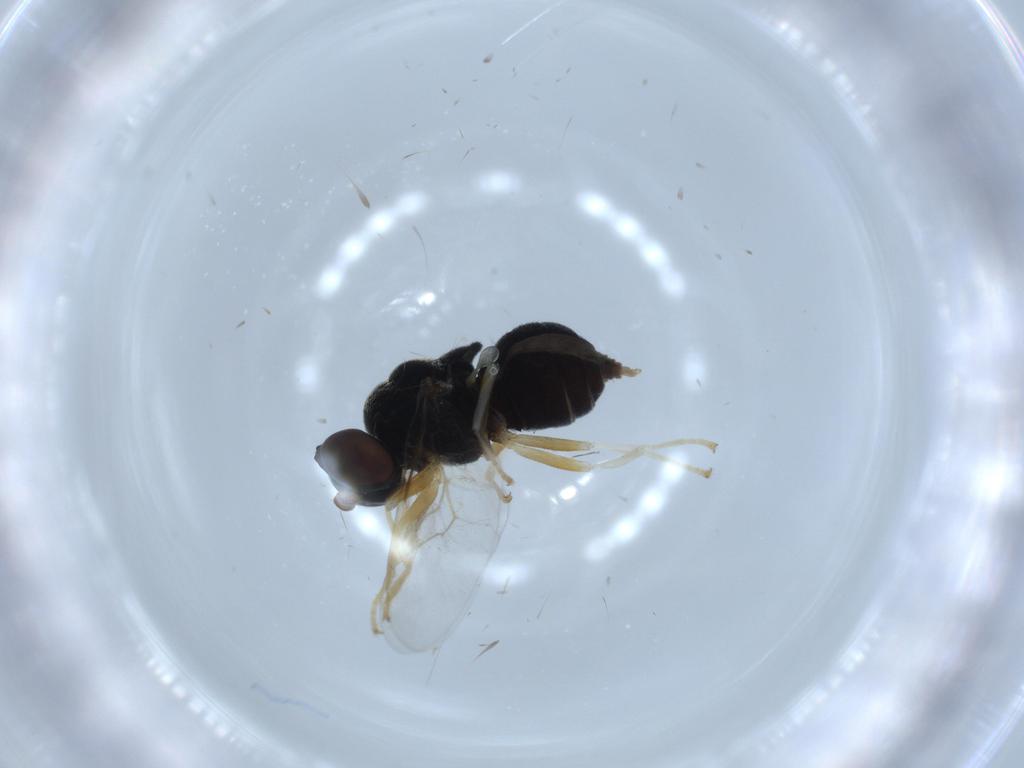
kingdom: Animalia
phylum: Arthropoda
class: Insecta
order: Diptera
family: Stratiomyidae
